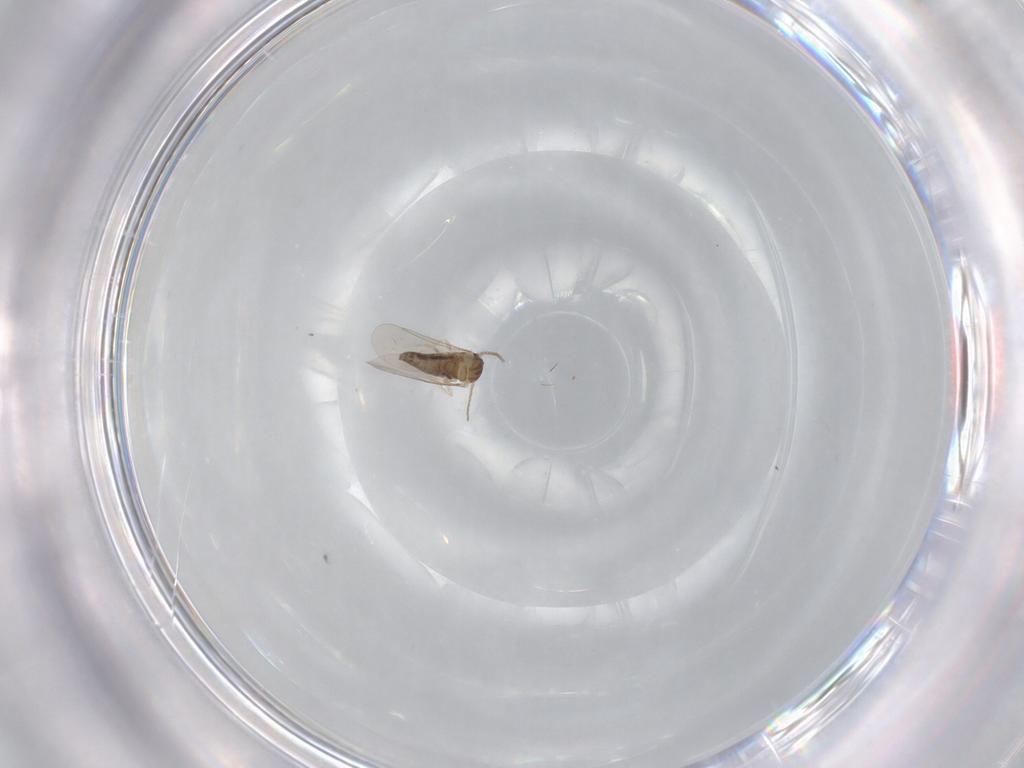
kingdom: Animalia
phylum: Arthropoda
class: Insecta
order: Diptera
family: Cecidomyiidae
